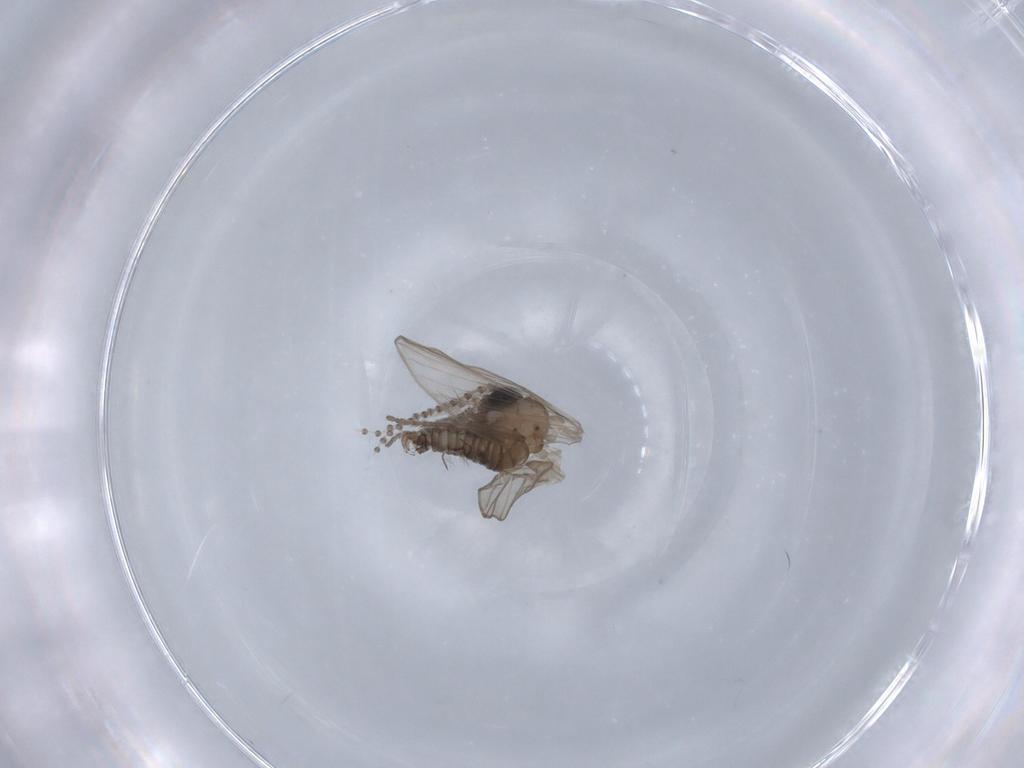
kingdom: Animalia
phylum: Arthropoda
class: Insecta
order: Diptera
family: Psychodidae
